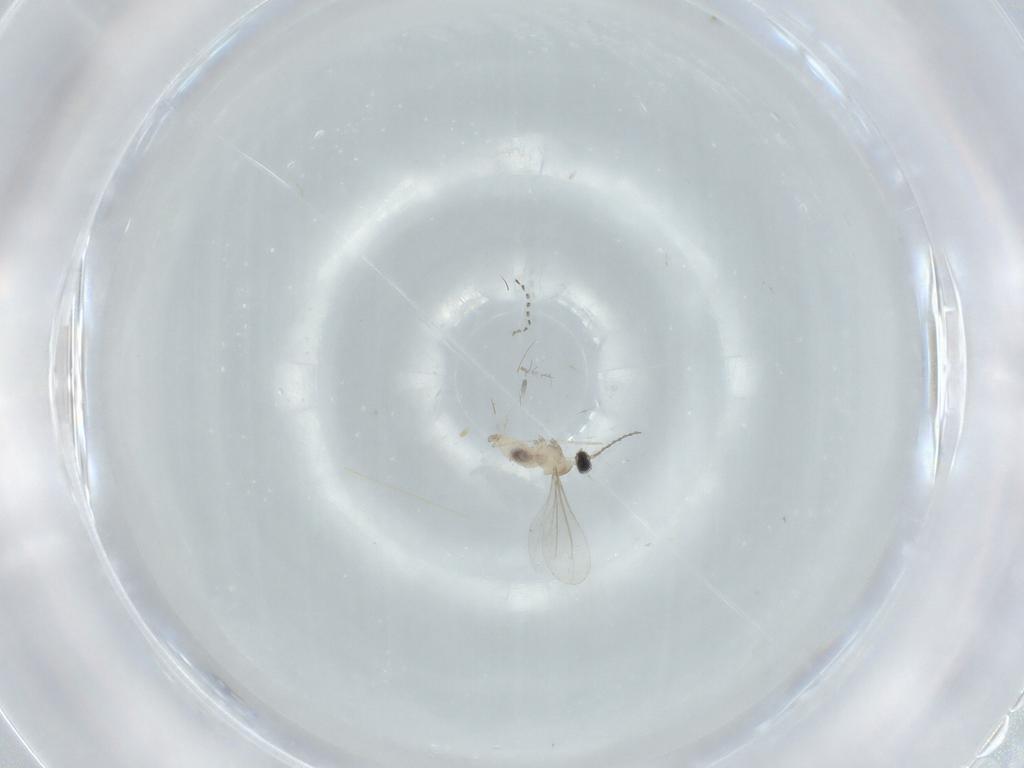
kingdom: Animalia
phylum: Arthropoda
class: Insecta
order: Diptera
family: Cecidomyiidae
